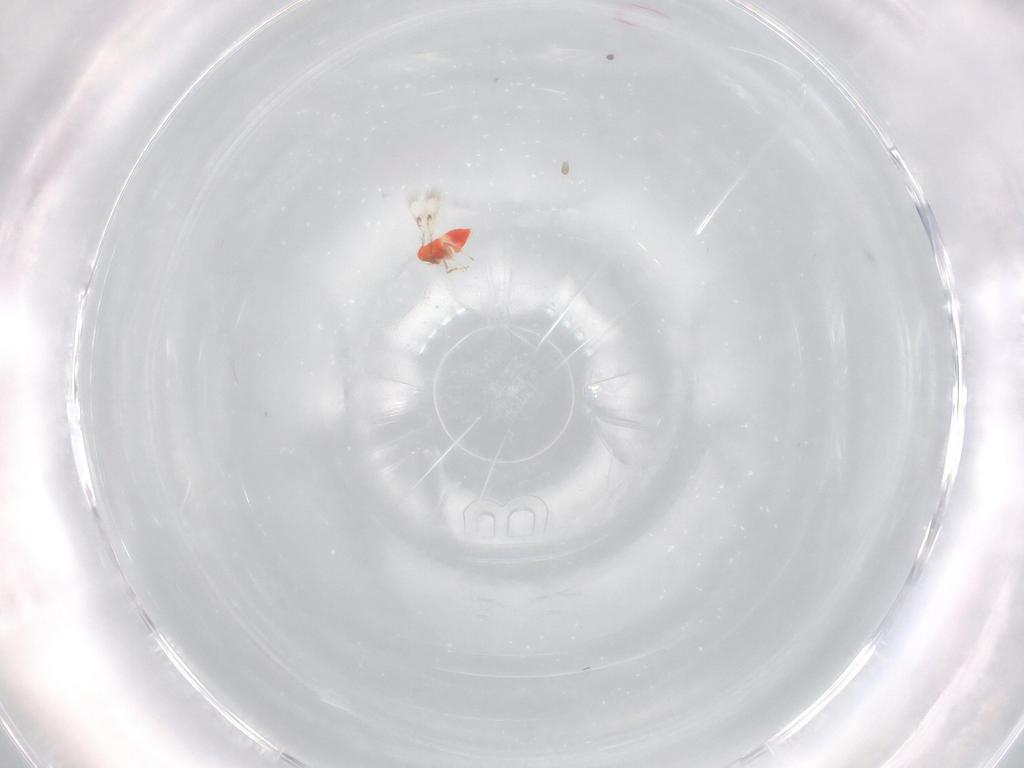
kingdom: Animalia
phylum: Arthropoda
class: Insecta
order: Hymenoptera
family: Trichogrammatidae
